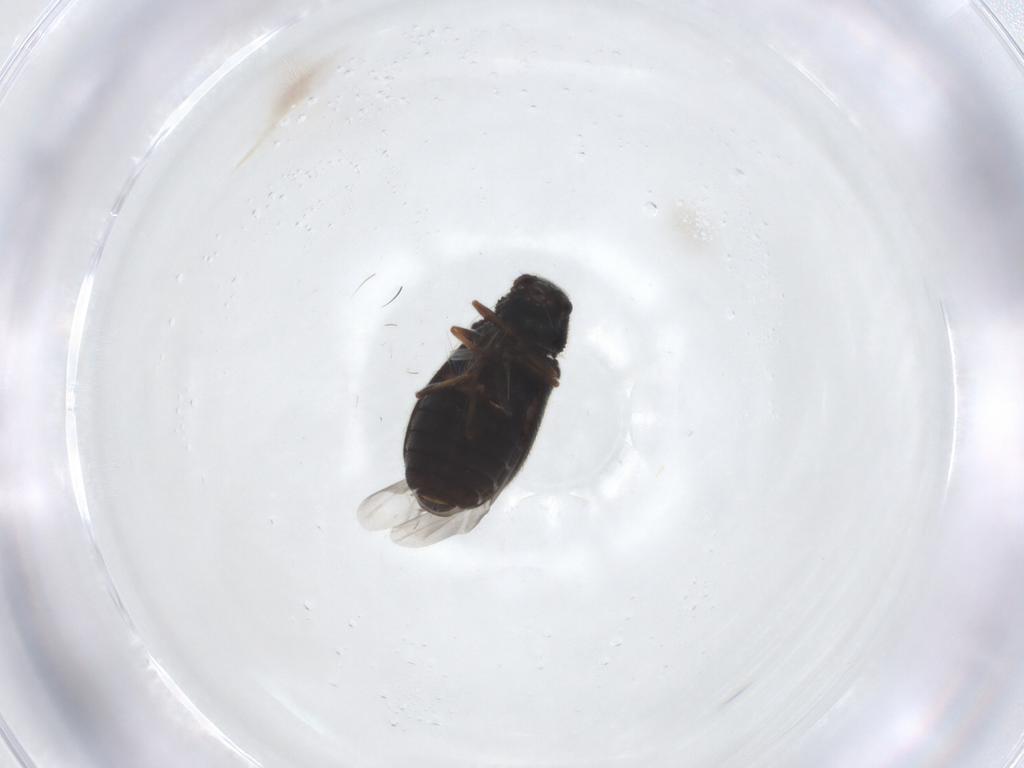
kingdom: Animalia
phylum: Arthropoda
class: Insecta
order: Coleoptera
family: Melyridae
